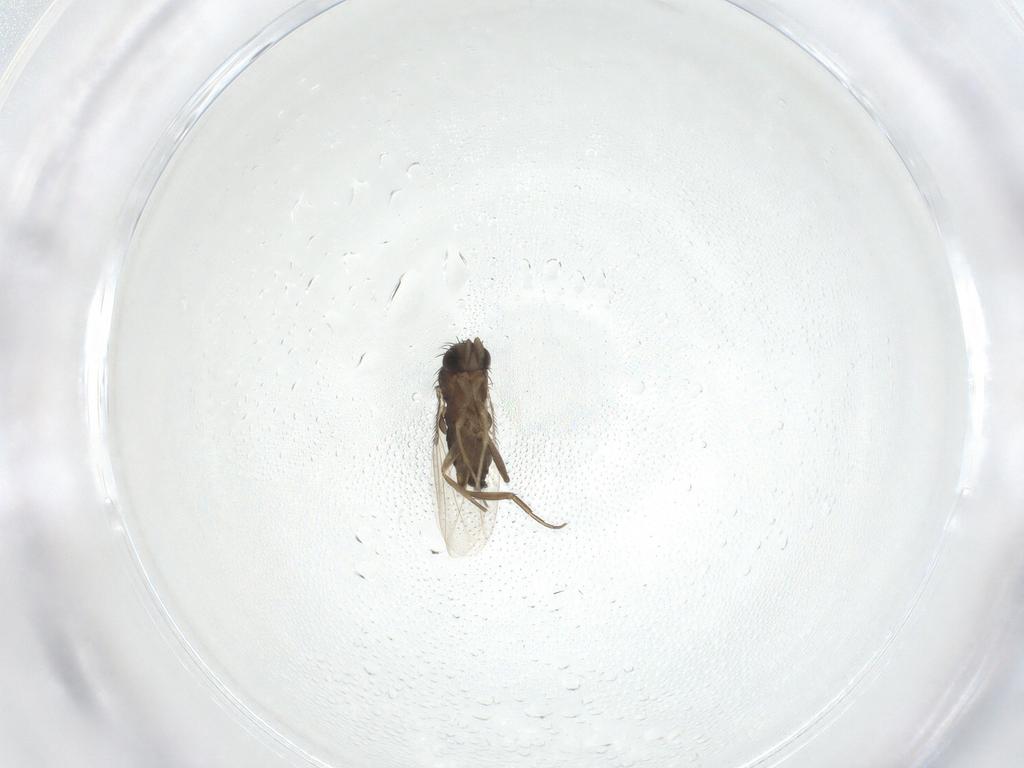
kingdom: Animalia
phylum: Arthropoda
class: Insecta
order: Diptera
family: Phoridae
